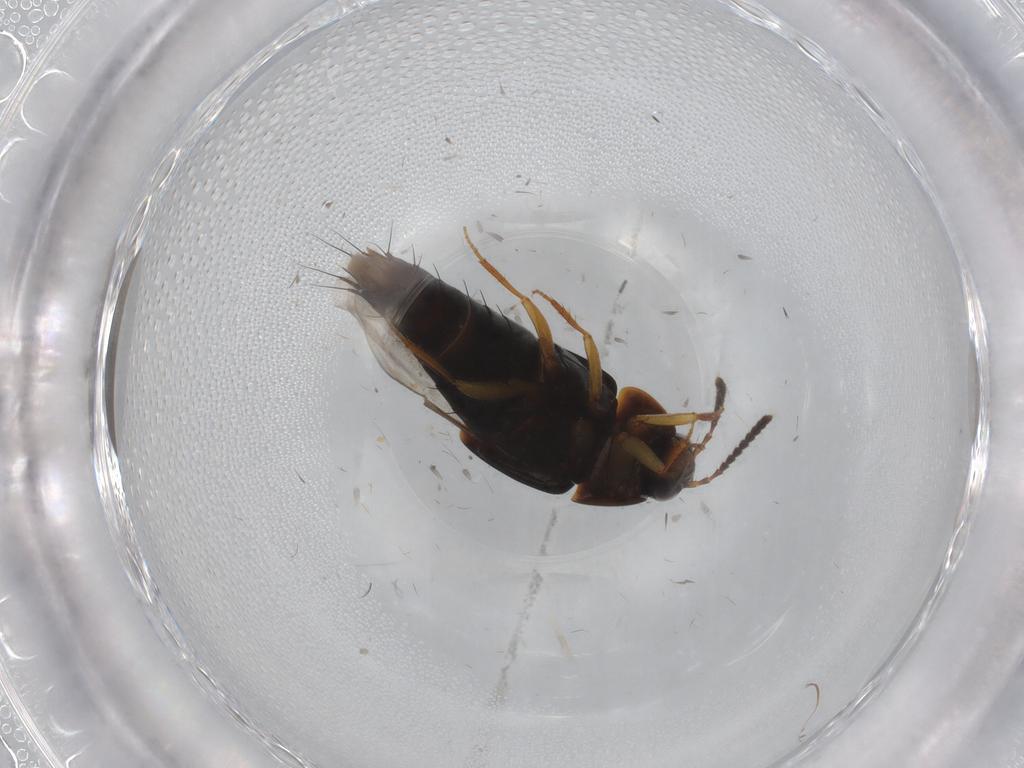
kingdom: Animalia
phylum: Arthropoda
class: Insecta
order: Coleoptera
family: Staphylinidae
